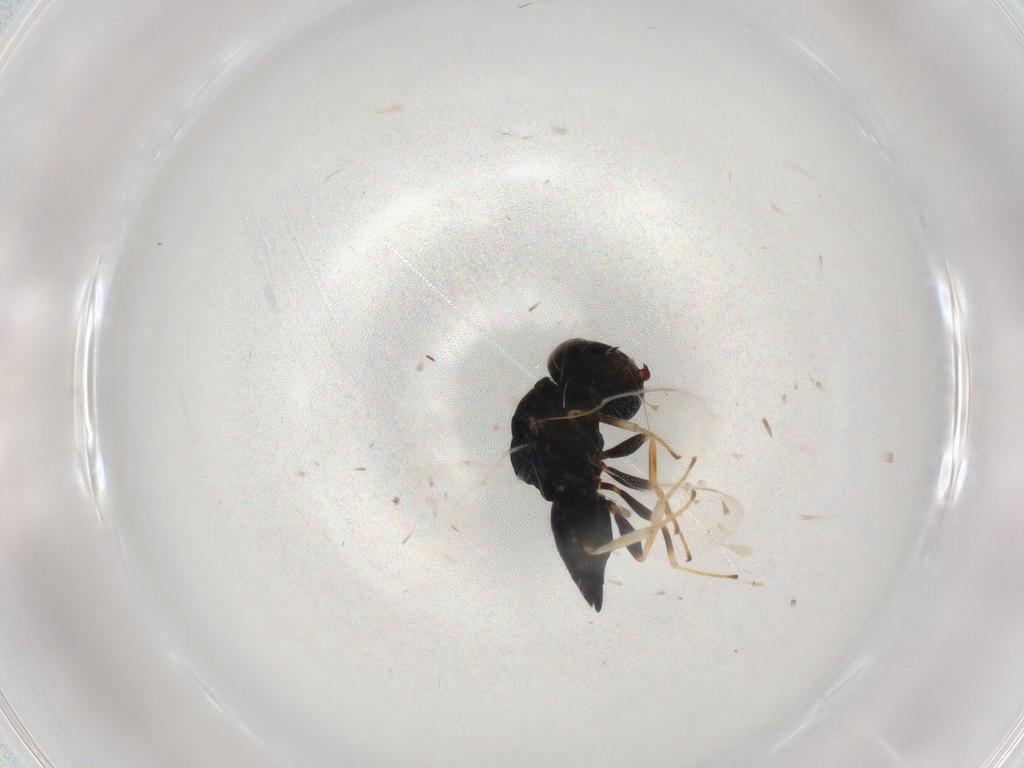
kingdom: Animalia
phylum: Arthropoda
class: Insecta
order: Hymenoptera
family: Pteromalidae
